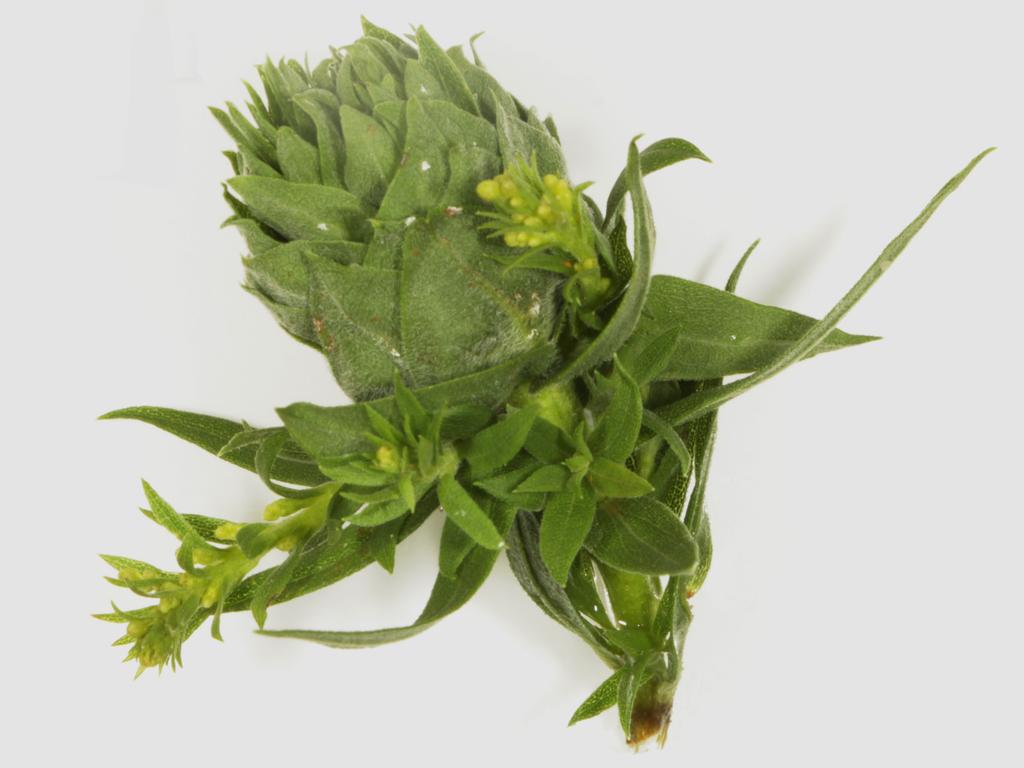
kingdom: Animalia
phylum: Arthropoda
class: Insecta
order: Thysanoptera
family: Phlaeothripidae
